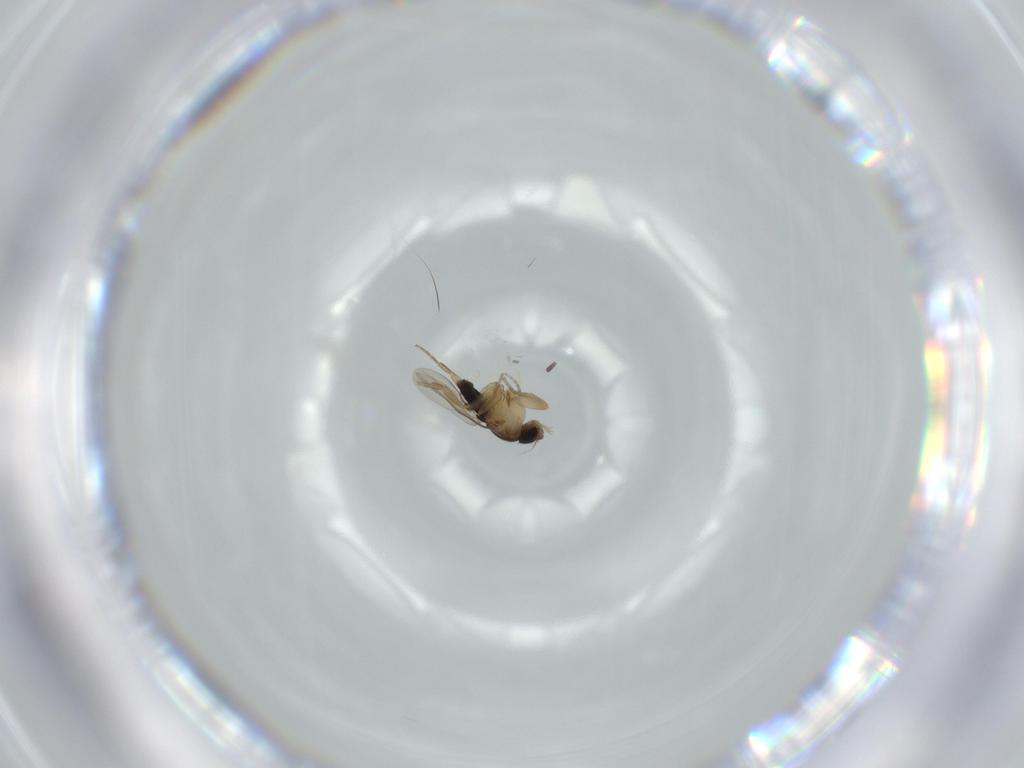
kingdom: Animalia
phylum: Arthropoda
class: Insecta
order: Diptera
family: Phoridae
